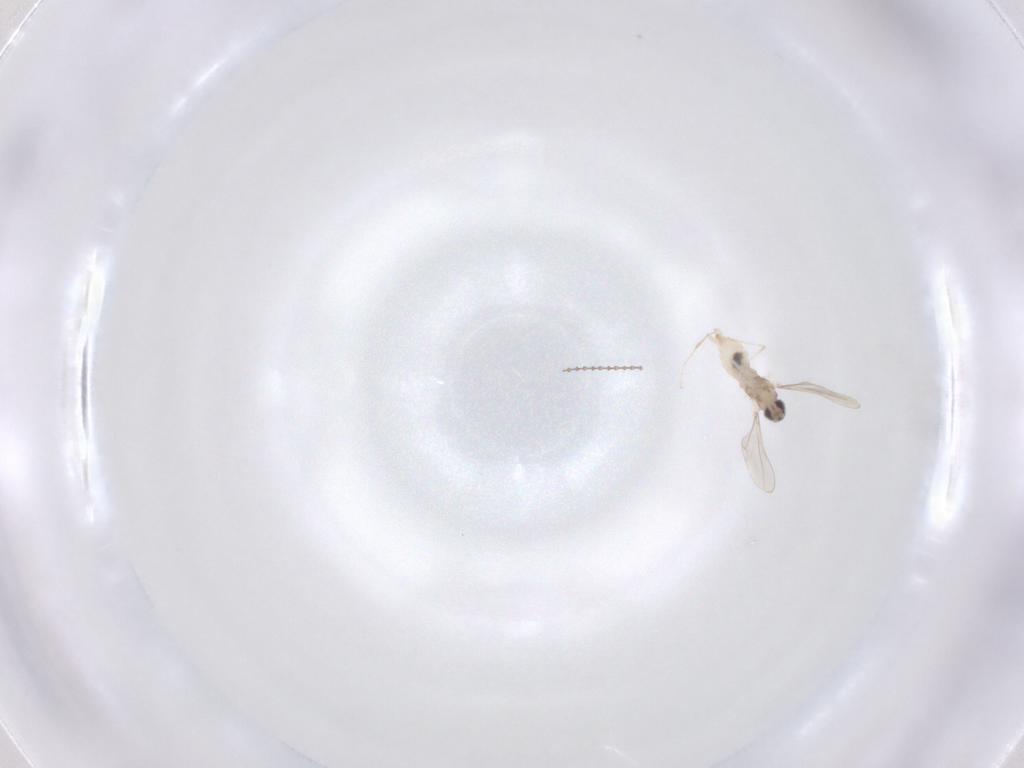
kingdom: Animalia
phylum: Arthropoda
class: Insecta
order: Diptera
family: Cecidomyiidae
